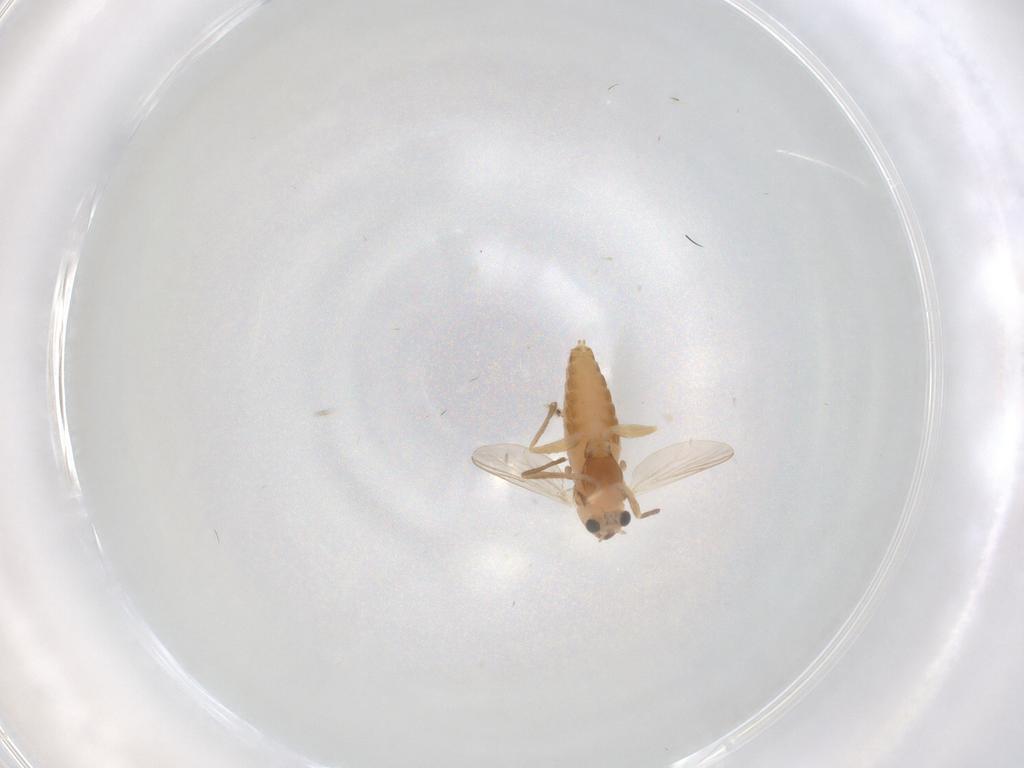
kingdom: Animalia
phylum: Arthropoda
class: Insecta
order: Diptera
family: Chironomidae
